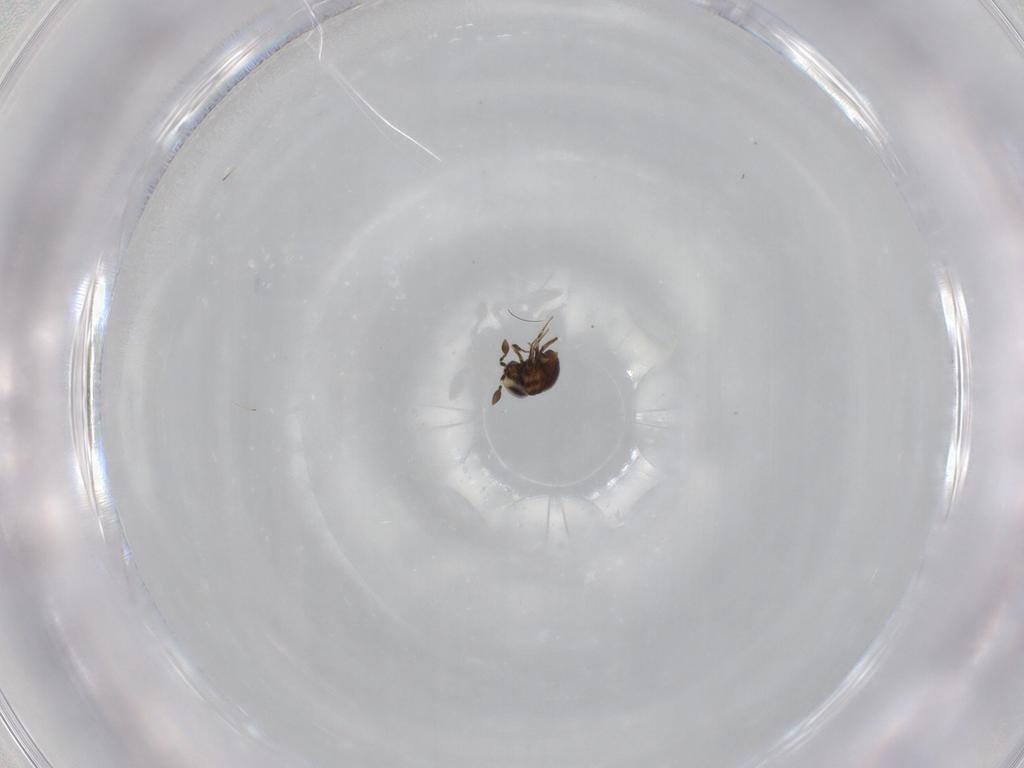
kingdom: Animalia
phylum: Arthropoda
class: Insecta
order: Hymenoptera
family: Scelionidae
